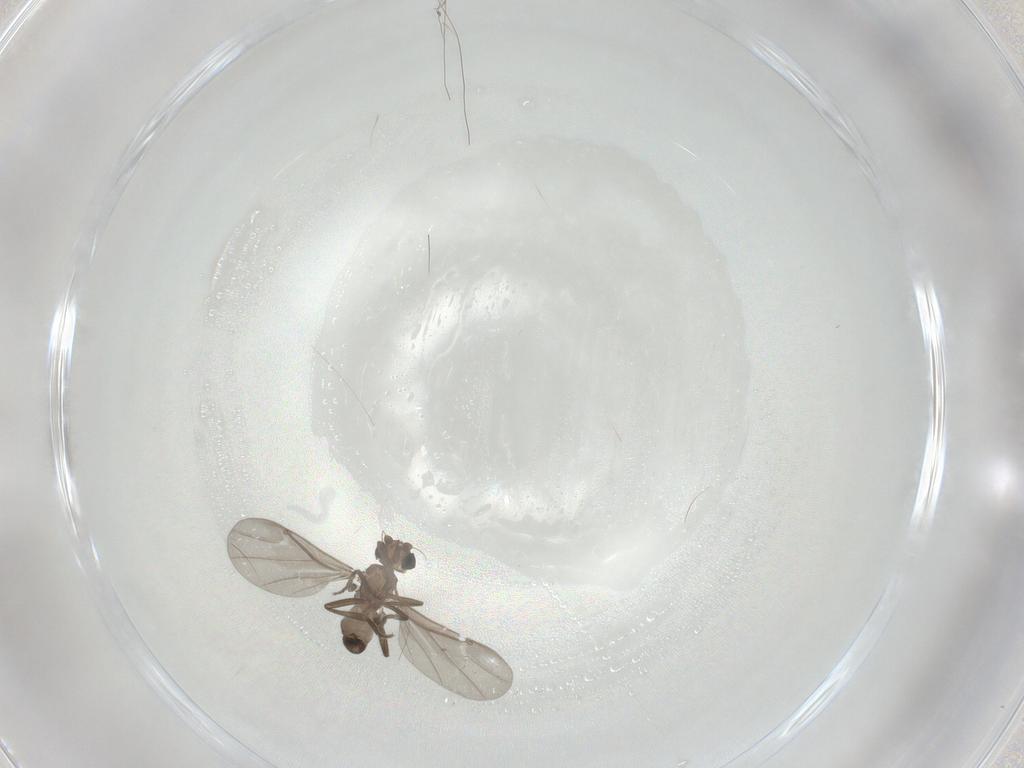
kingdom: Animalia
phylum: Arthropoda
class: Insecta
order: Diptera
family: Phoridae
